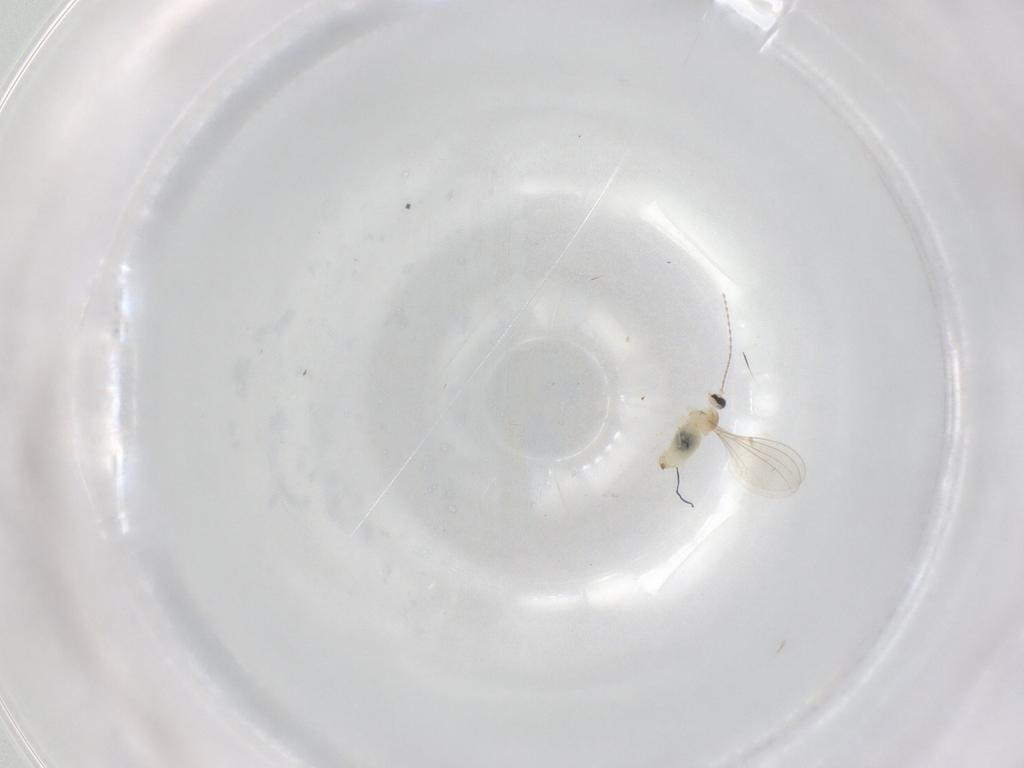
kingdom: Animalia
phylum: Arthropoda
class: Insecta
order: Diptera
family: Cecidomyiidae
